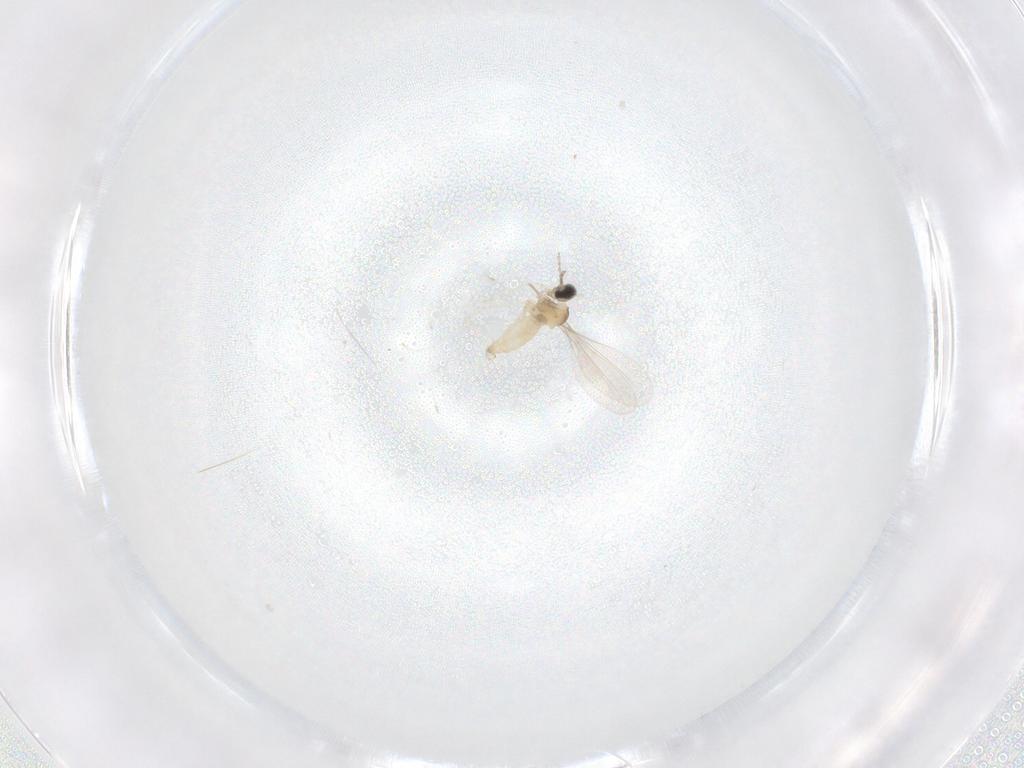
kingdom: Animalia
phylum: Arthropoda
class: Insecta
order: Diptera
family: Cecidomyiidae
